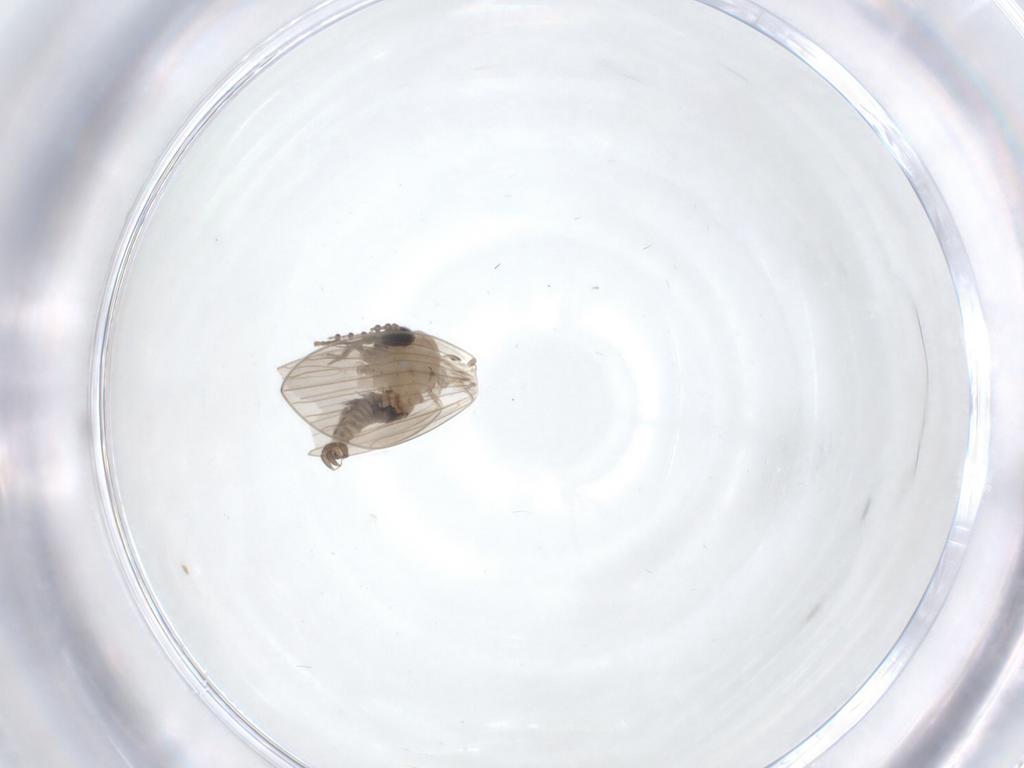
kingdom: Animalia
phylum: Arthropoda
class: Insecta
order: Diptera
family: Psychodidae
